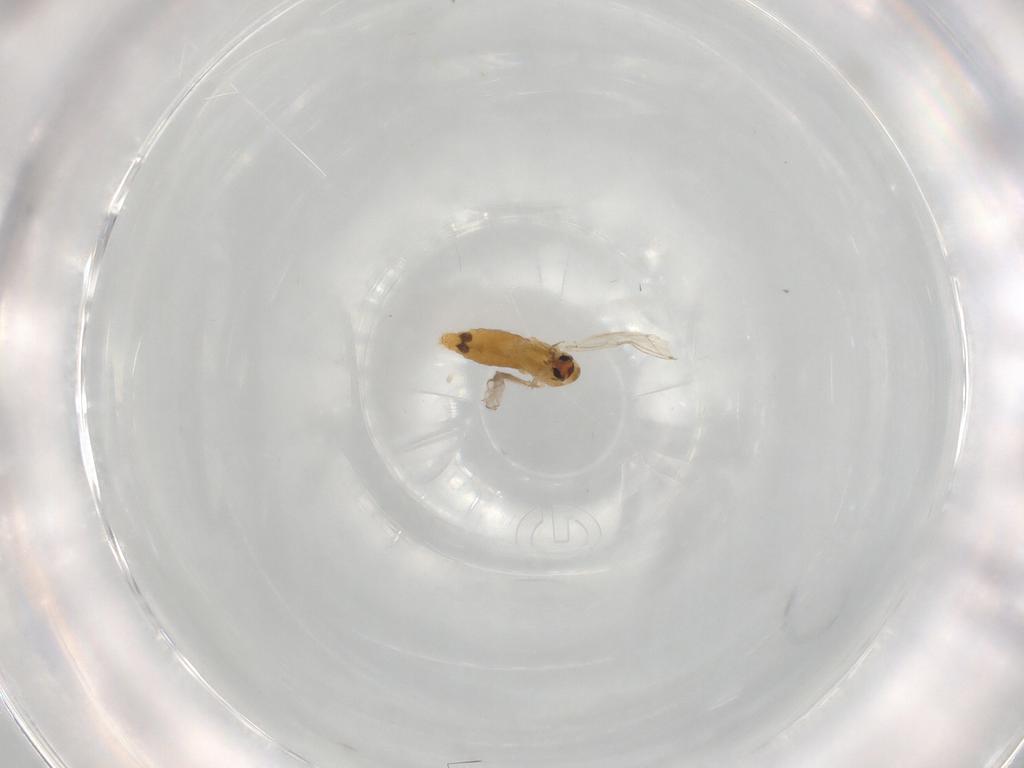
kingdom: Animalia
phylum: Arthropoda
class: Insecta
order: Diptera
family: Chironomidae
